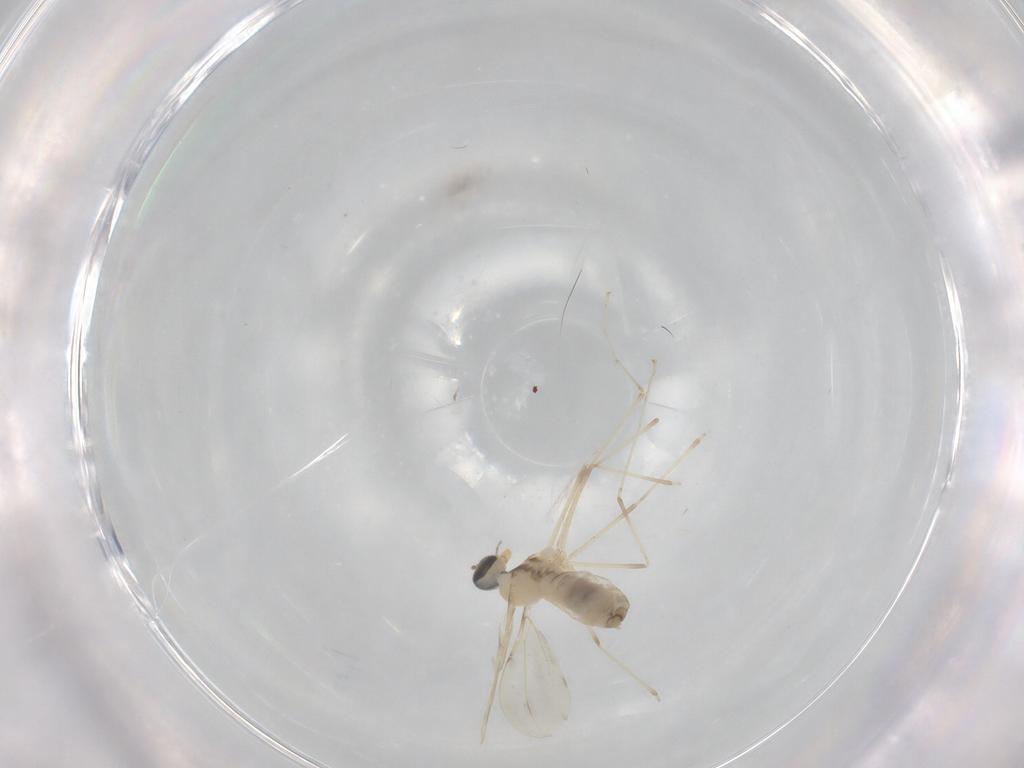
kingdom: Animalia
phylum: Arthropoda
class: Insecta
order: Diptera
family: Cecidomyiidae
